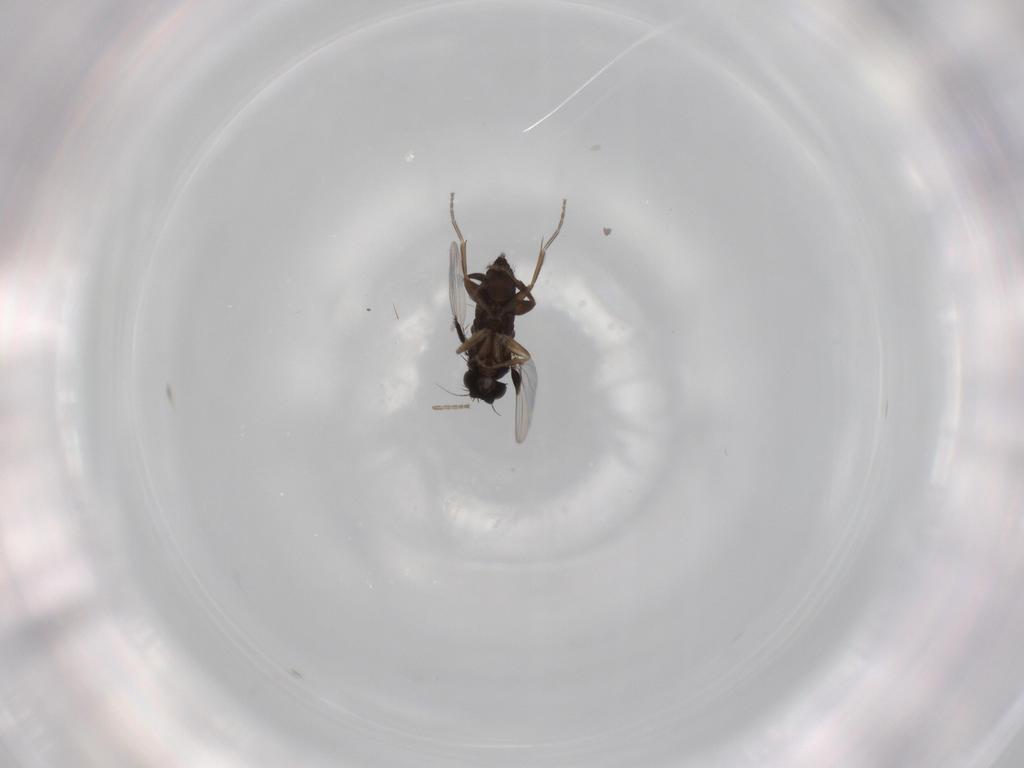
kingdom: Animalia
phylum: Arthropoda
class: Insecta
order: Diptera
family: Phoridae
